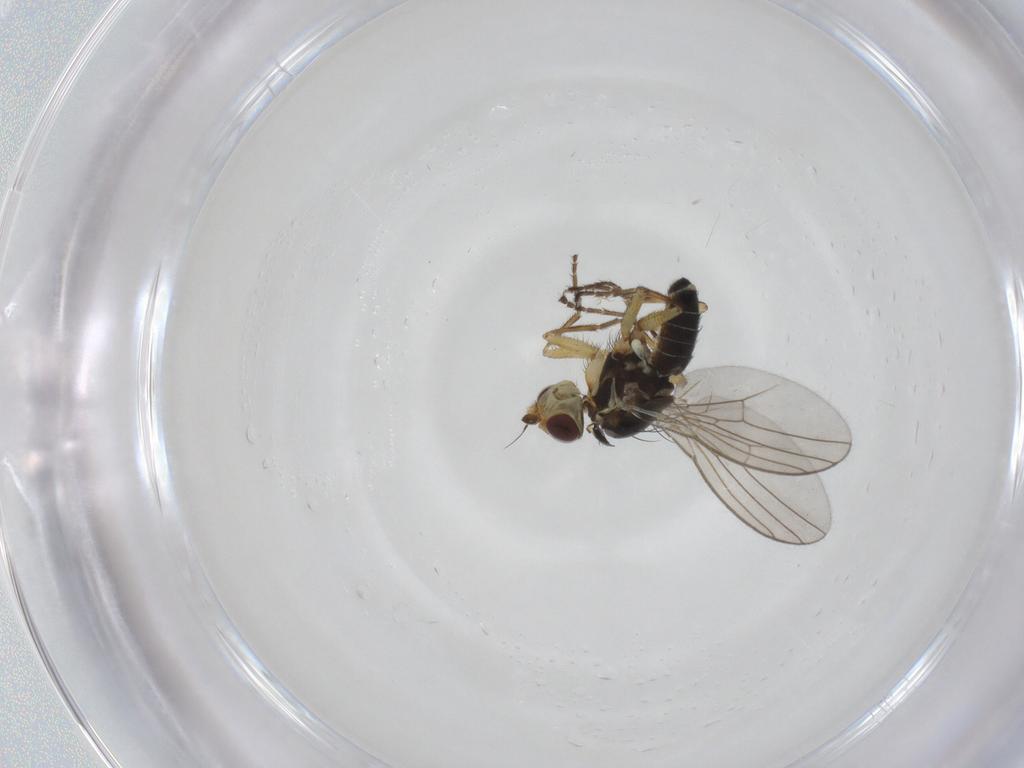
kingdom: Animalia
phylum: Arthropoda
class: Insecta
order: Diptera
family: Agromyzidae
